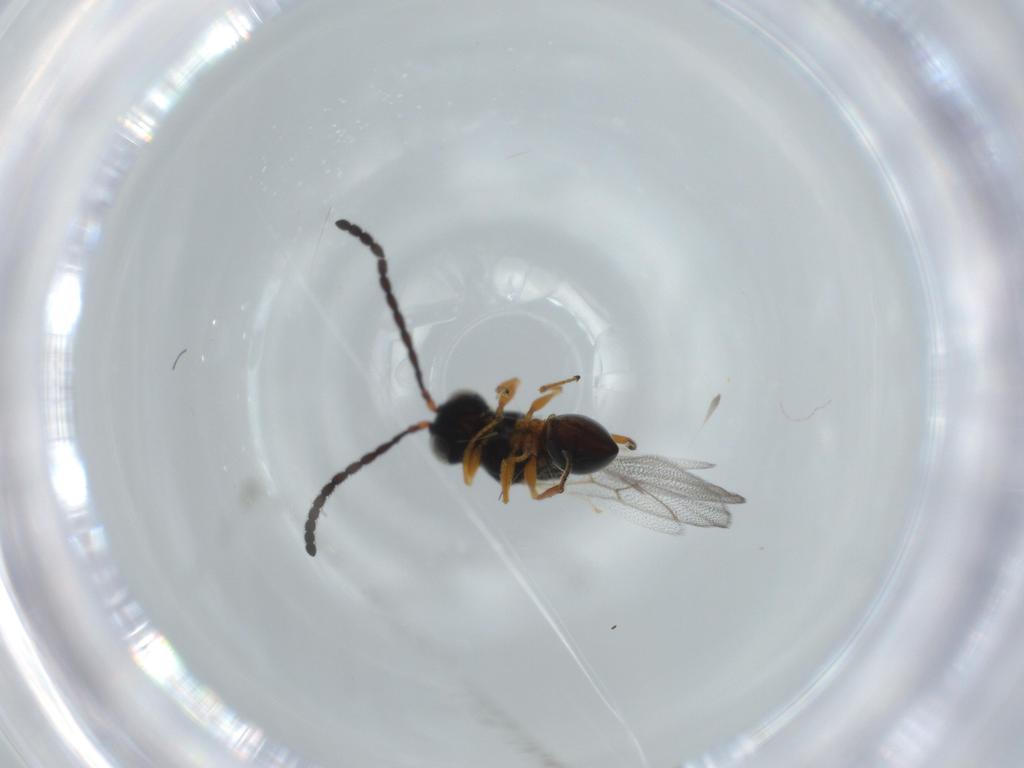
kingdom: Animalia
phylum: Arthropoda
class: Insecta
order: Hymenoptera
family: Figitidae
